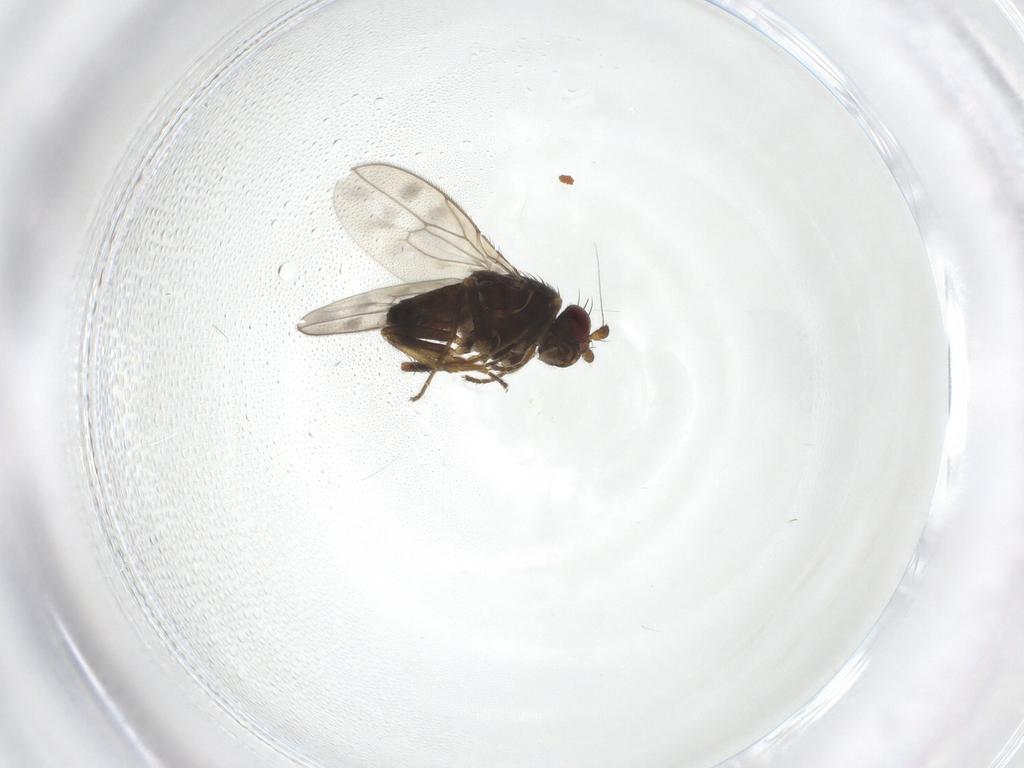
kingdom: Animalia
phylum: Arthropoda
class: Insecta
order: Diptera
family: Sphaeroceridae
